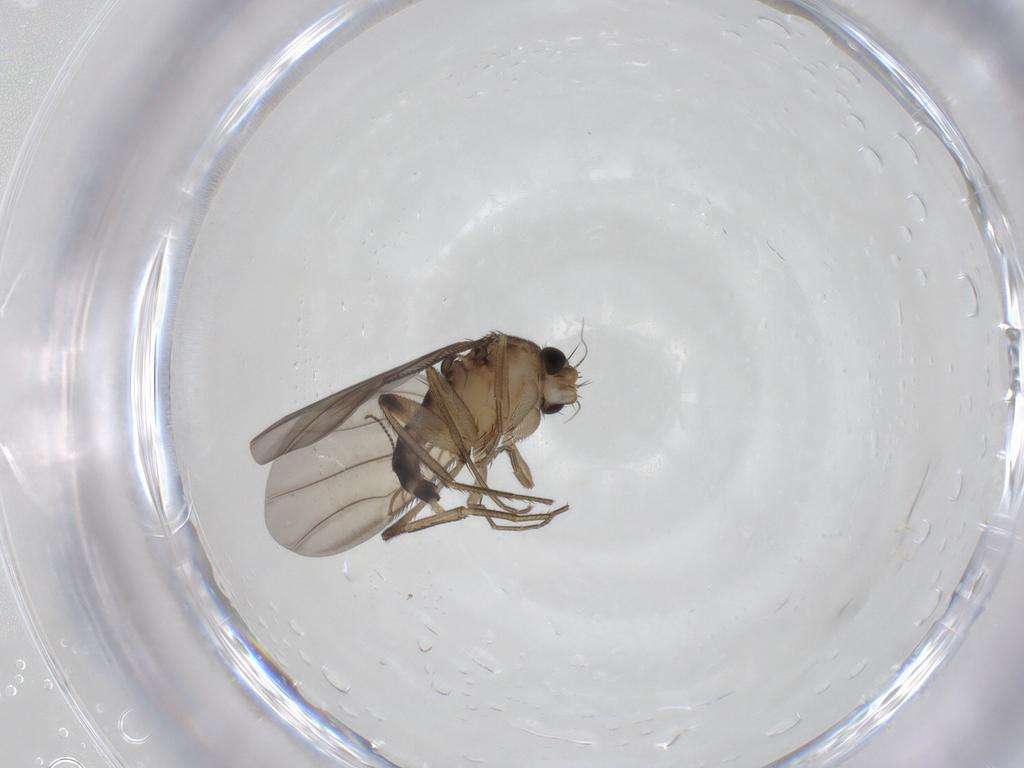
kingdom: Animalia
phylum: Arthropoda
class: Insecta
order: Diptera
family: Phoridae
